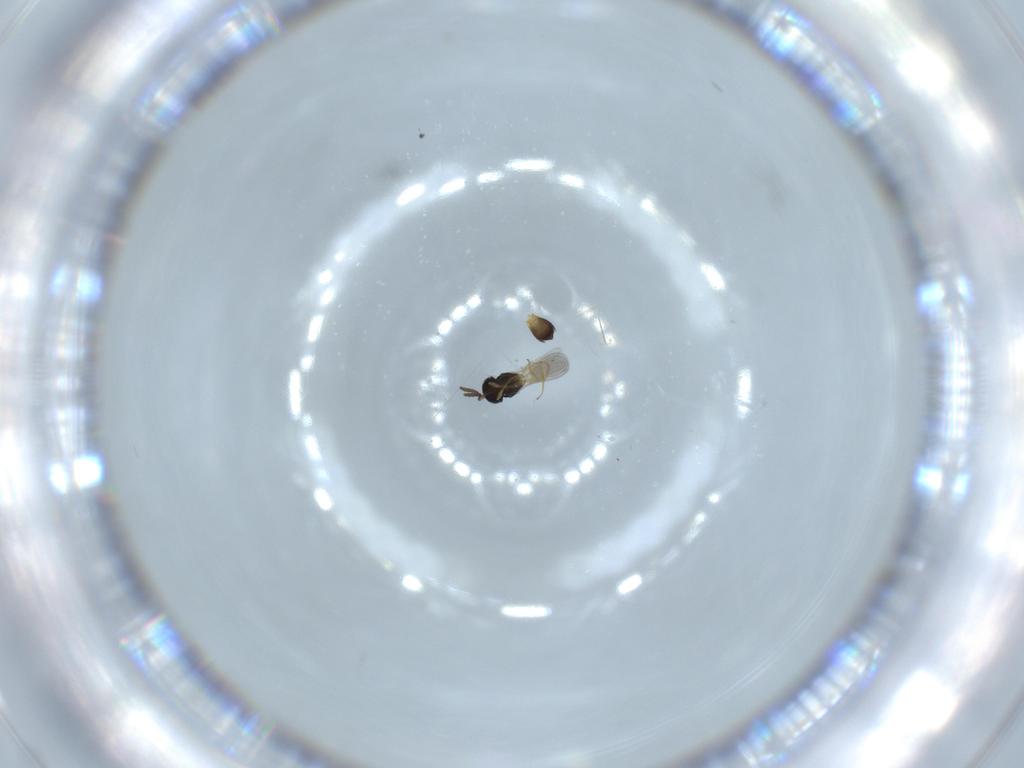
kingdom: Animalia
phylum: Arthropoda
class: Insecta
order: Hymenoptera
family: Scelionidae
